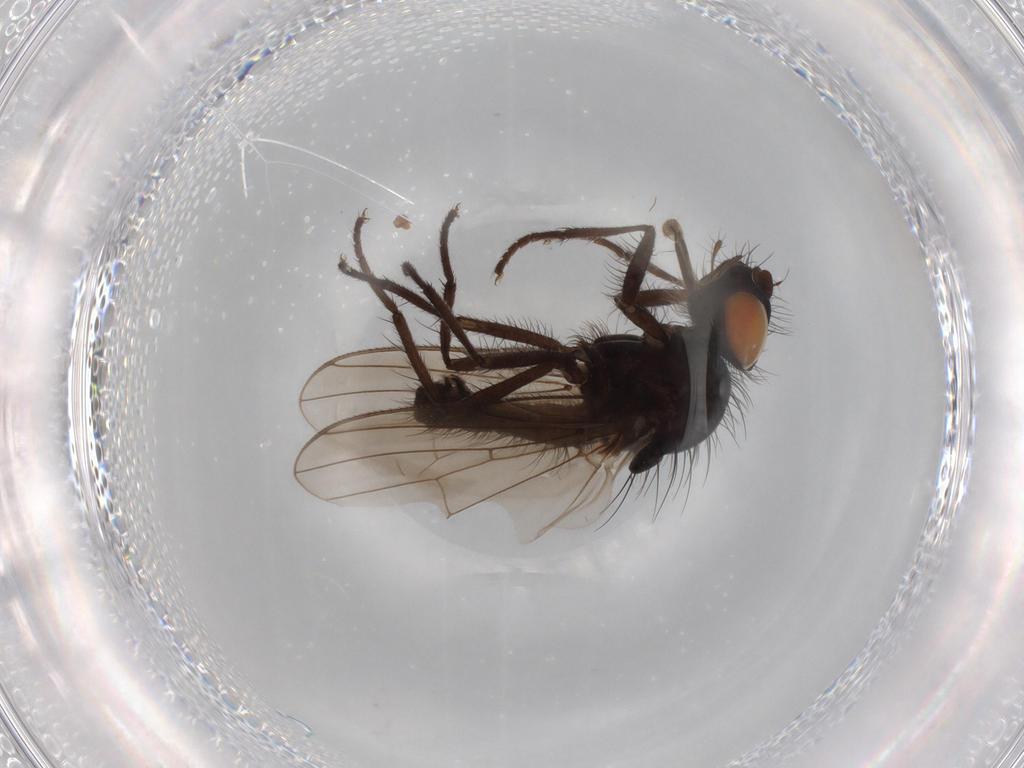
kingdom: Animalia
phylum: Arthropoda
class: Insecta
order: Diptera
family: Anthomyiidae
